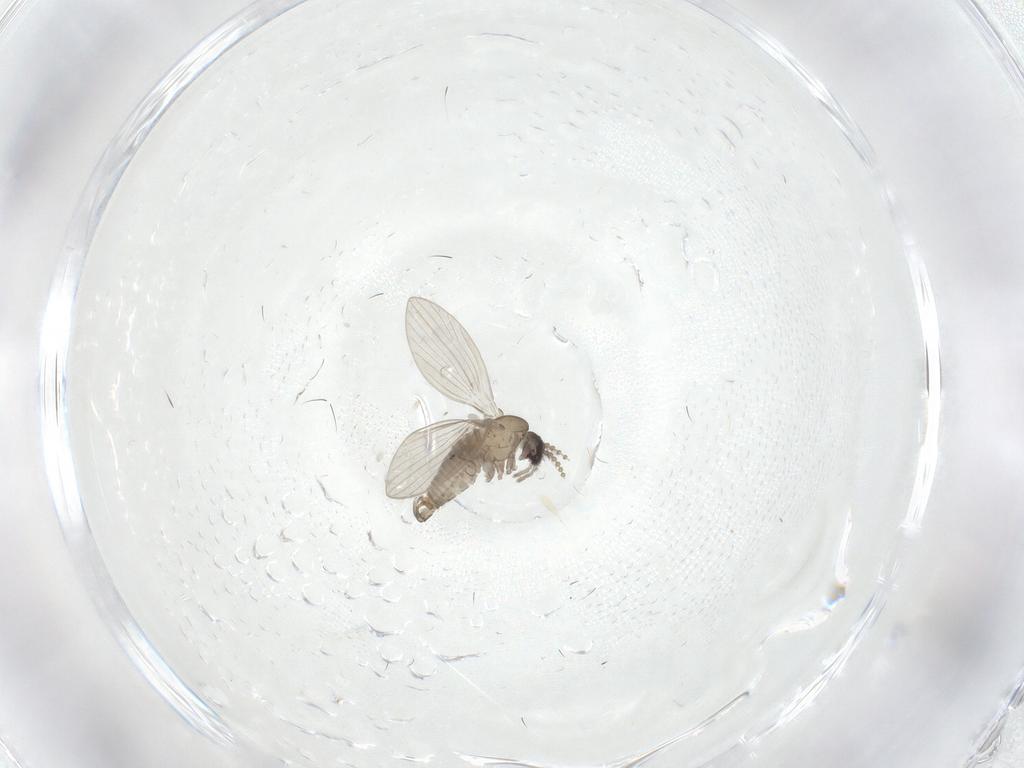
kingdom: Animalia
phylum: Arthropoda
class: Insecta
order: Diptera
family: Psychodidae
